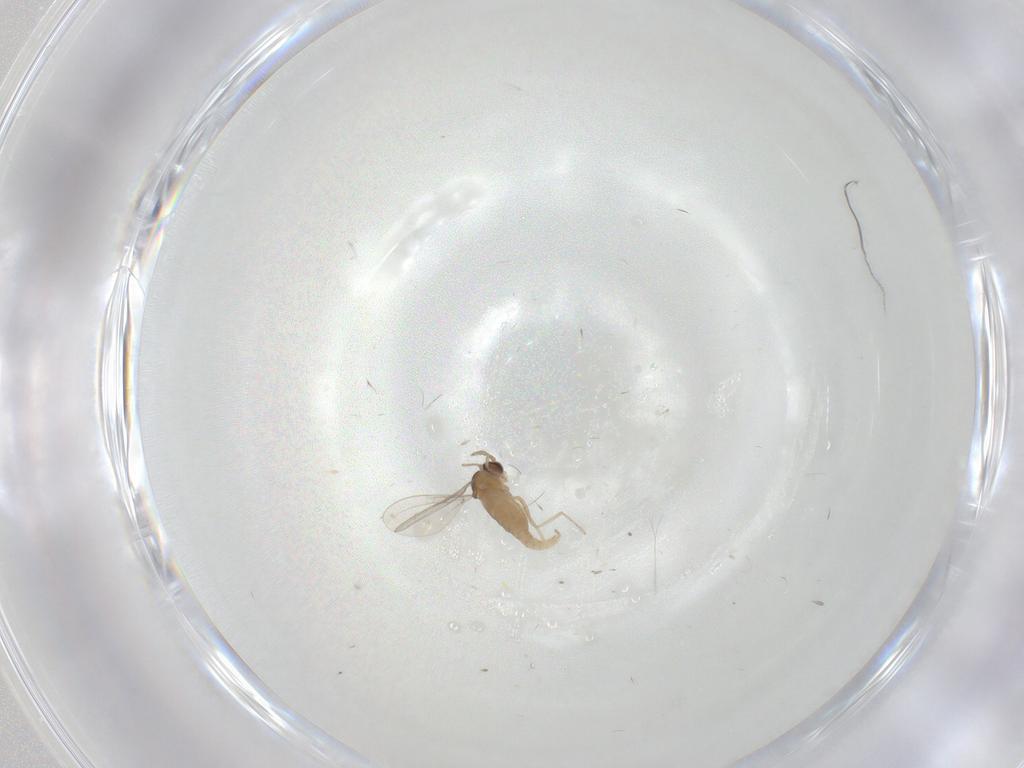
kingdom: Animalia
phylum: Arthropoda
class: Insecta
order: Diptera
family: Cecidomyiidae
